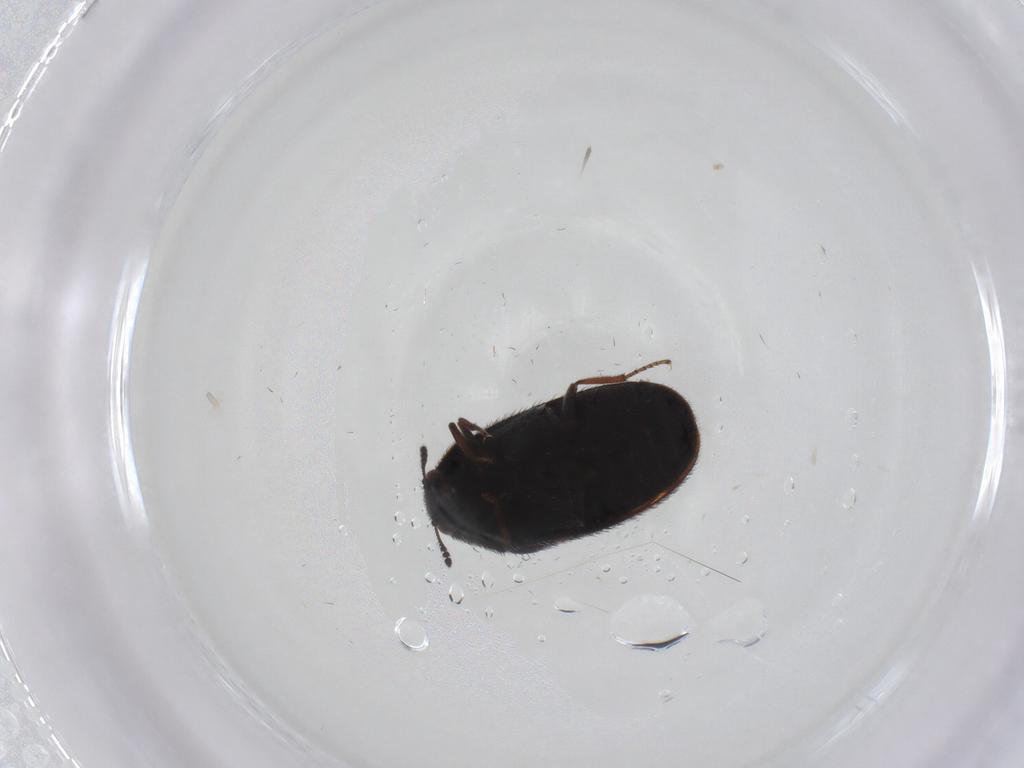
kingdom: Animalia
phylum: Arthropoda
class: Insecta
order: Coleoptera
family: Dermestidae
